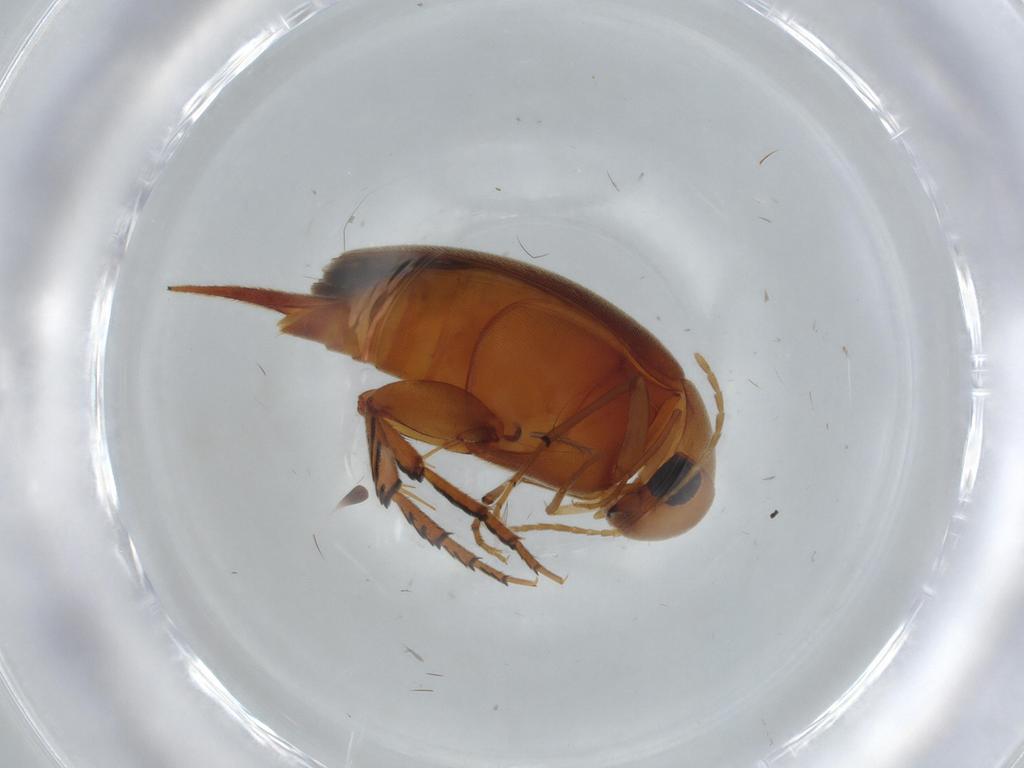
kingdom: Animalia
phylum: Arthropoda
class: Insecta
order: Coleoptera
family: Mordellidae
